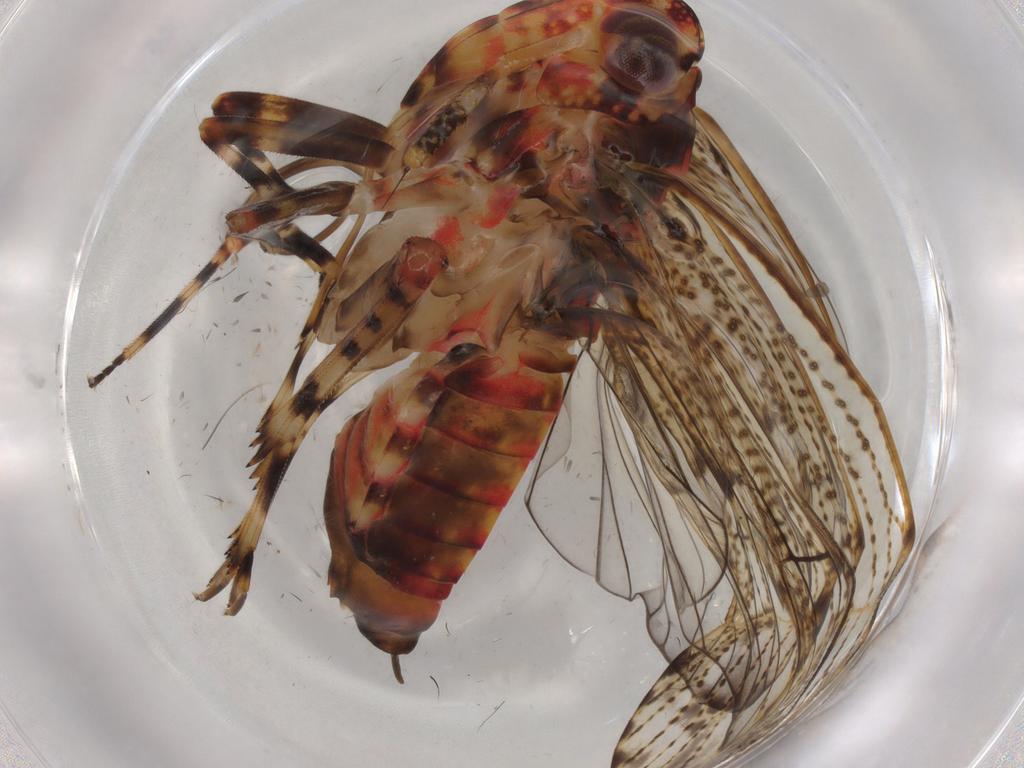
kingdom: Animalia
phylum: Arthropoda
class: Insecta
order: Hemiptera
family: Delphacidae
